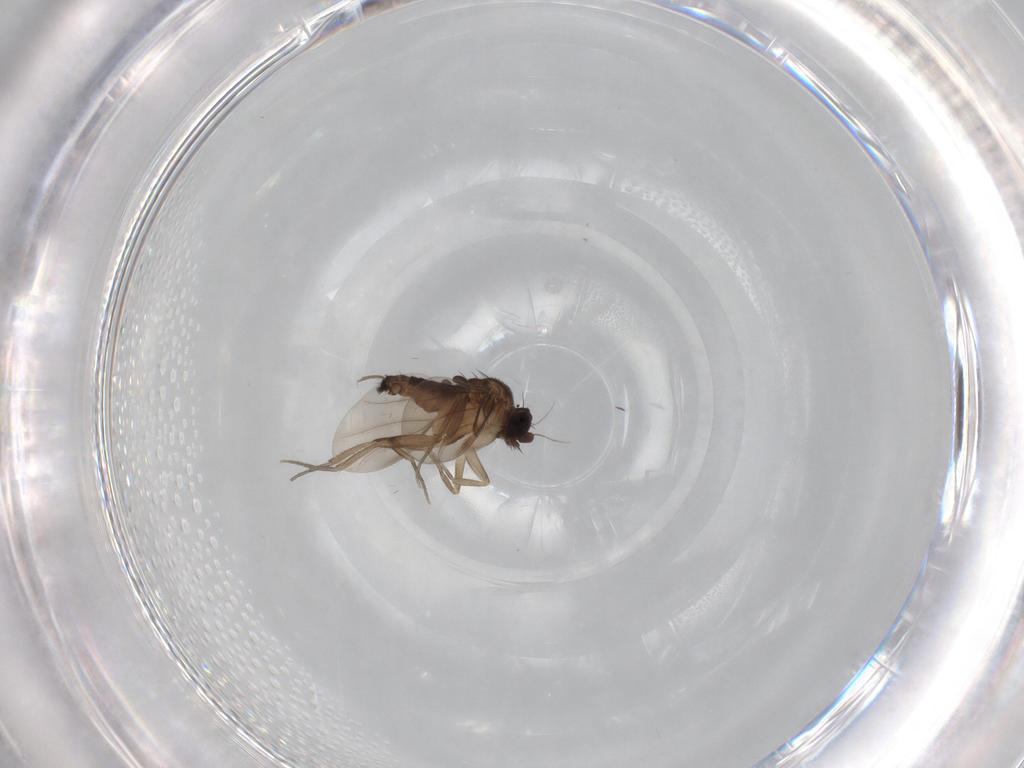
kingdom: Animalia
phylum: Arthropoda
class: Insecta
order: Diptera
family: Phoridae
